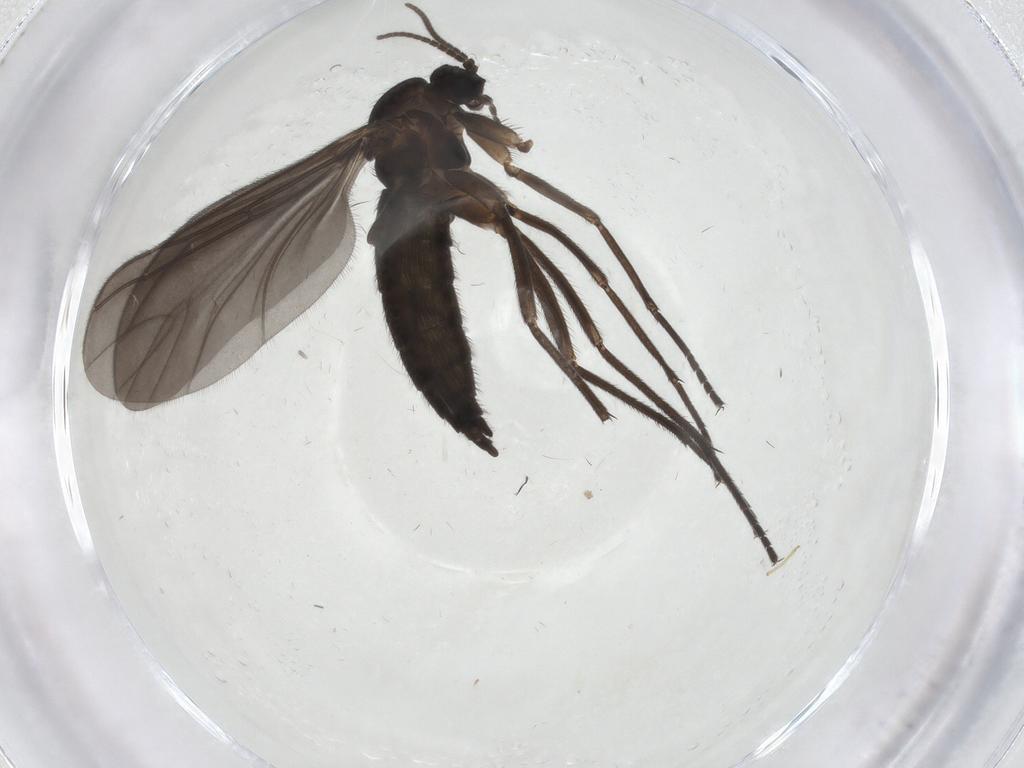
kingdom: Animalia
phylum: Arthropoda
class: Insecta
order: Diptera
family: Sciaridae
